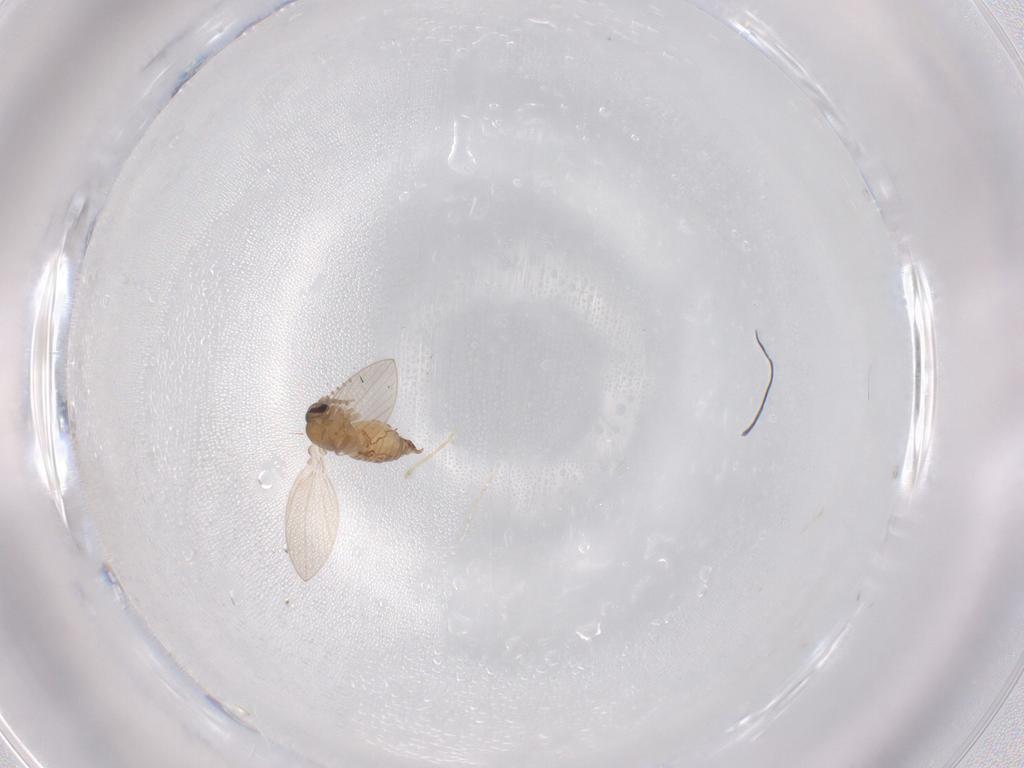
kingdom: Animalia
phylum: Arthropoda
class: Insecta
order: Diptera
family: Psychodidae
